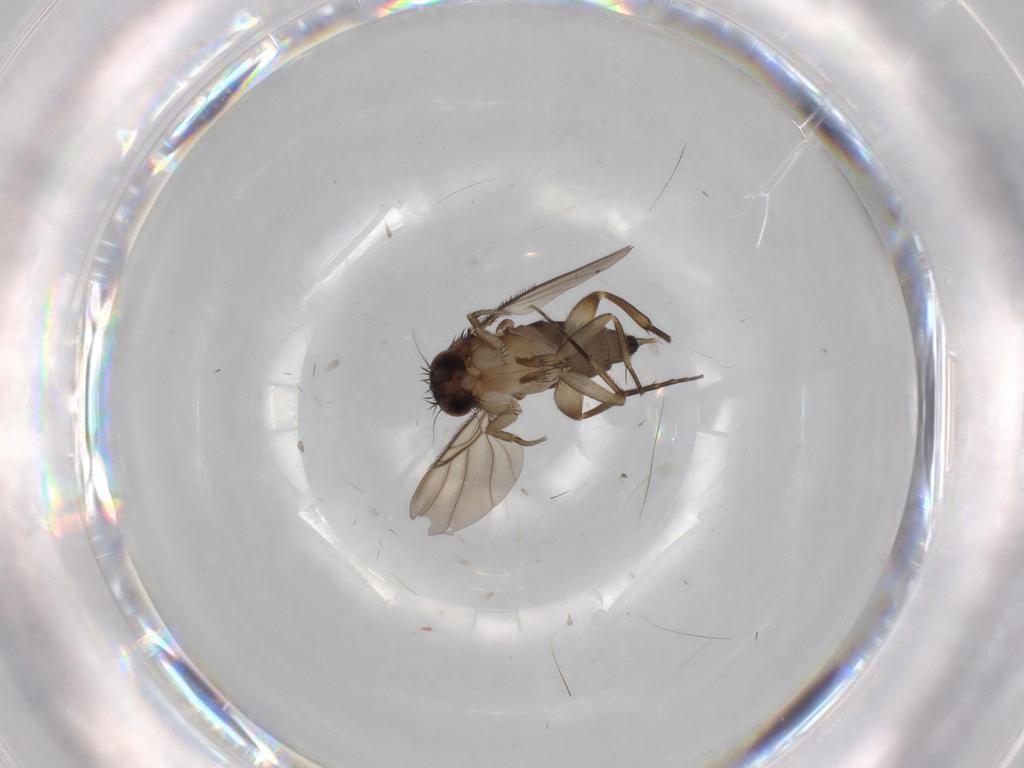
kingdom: Animalia
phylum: Arthropoda
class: Insecta
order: Diptera
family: Phoridae
